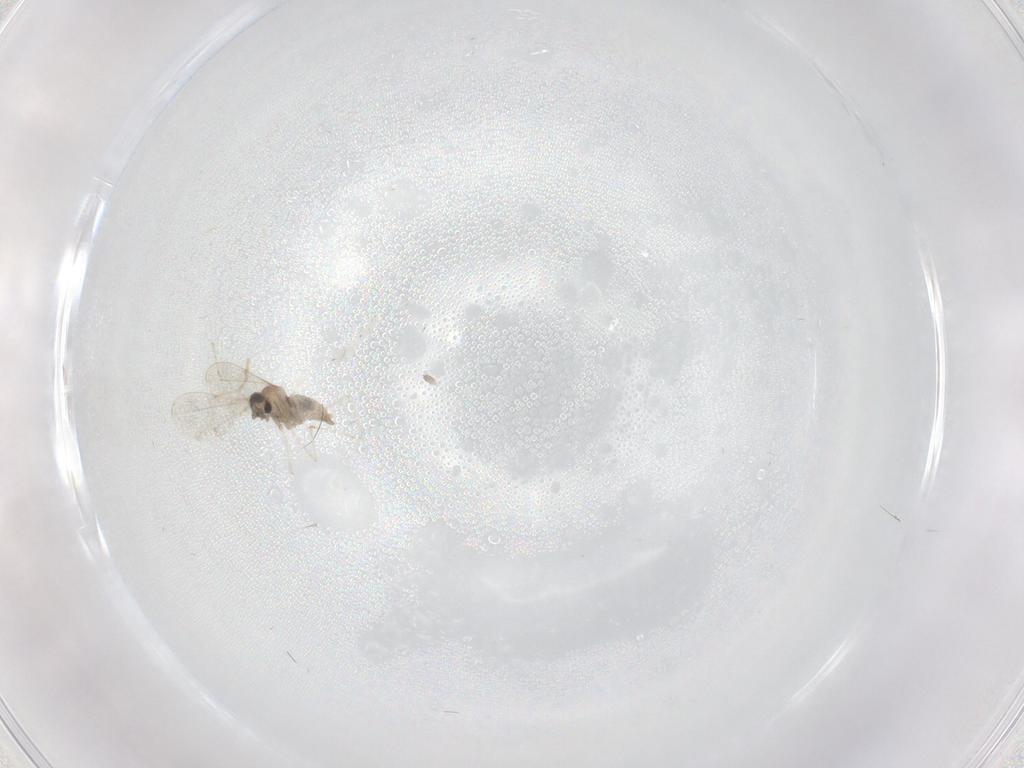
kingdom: Animalia
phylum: Arthropoda
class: Insecta
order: Diptera
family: Cecidomyiidae
